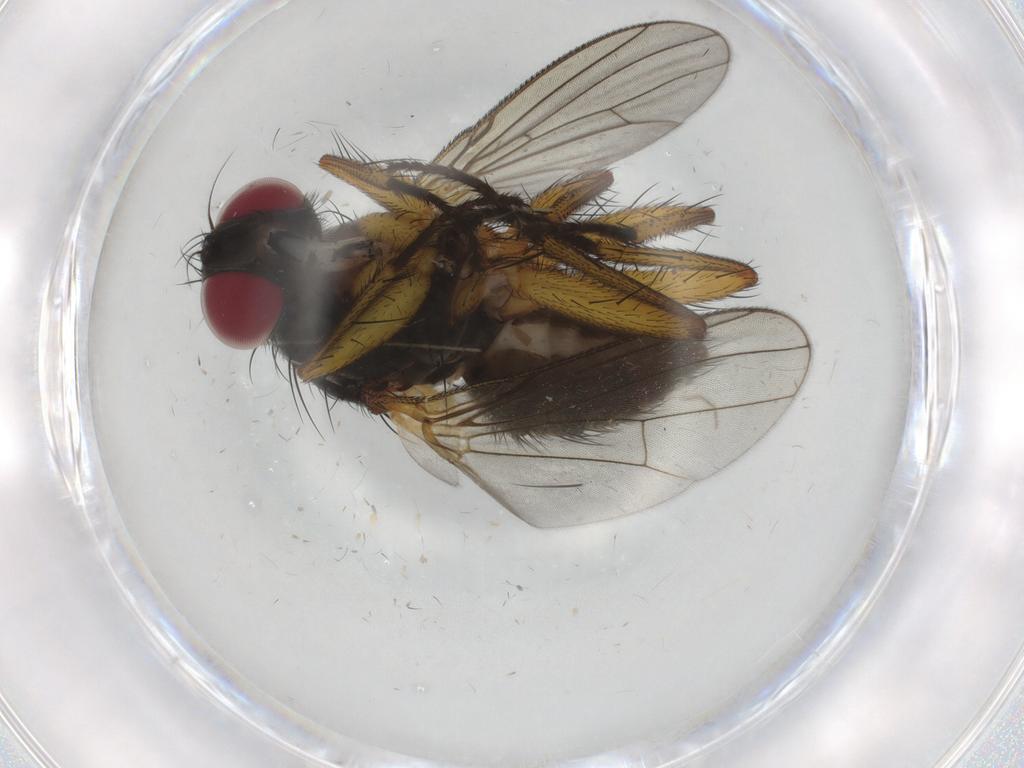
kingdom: Animalia
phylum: Arthropoda
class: Insecta
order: Diptera
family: Muscidae
